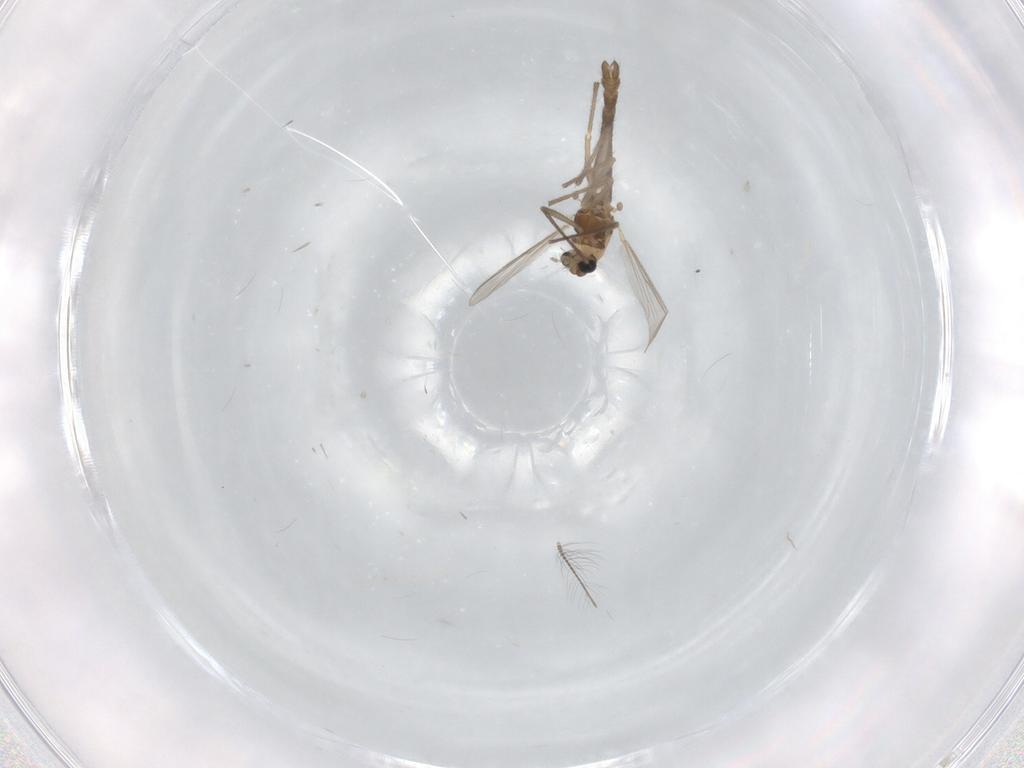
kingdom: Animalia
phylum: Arthropoda
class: Insecta
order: Diptera
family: Chironomidae
